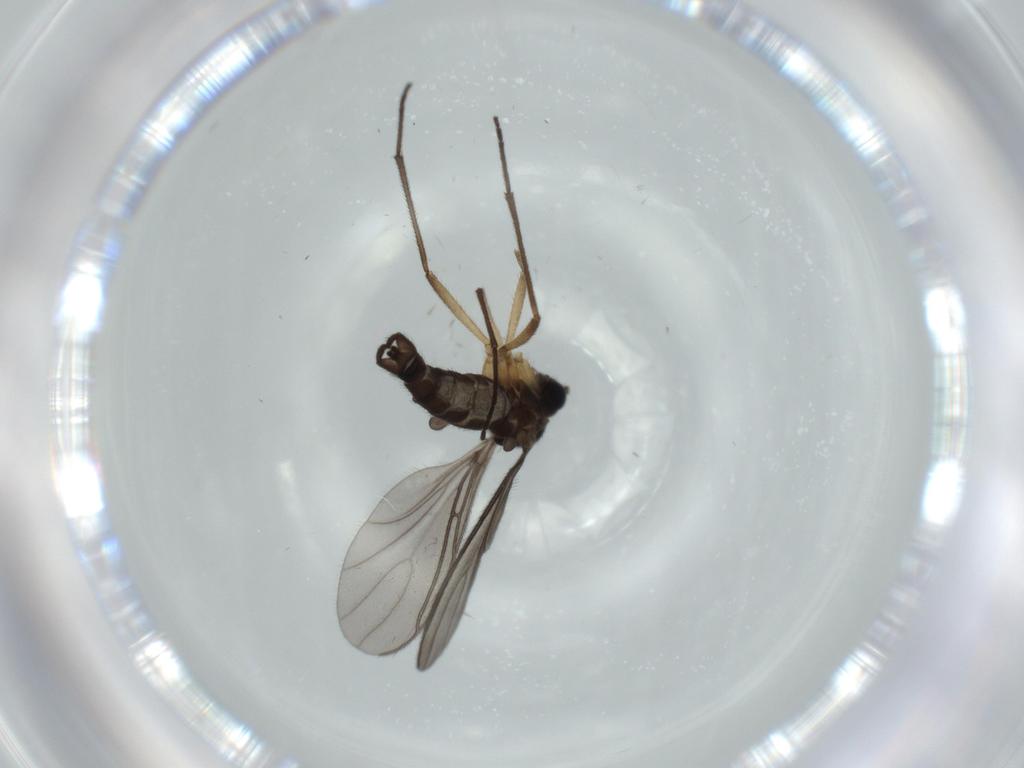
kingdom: Animalia
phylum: Arthropoda
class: Insecta
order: Diptera
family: Sciaridae
